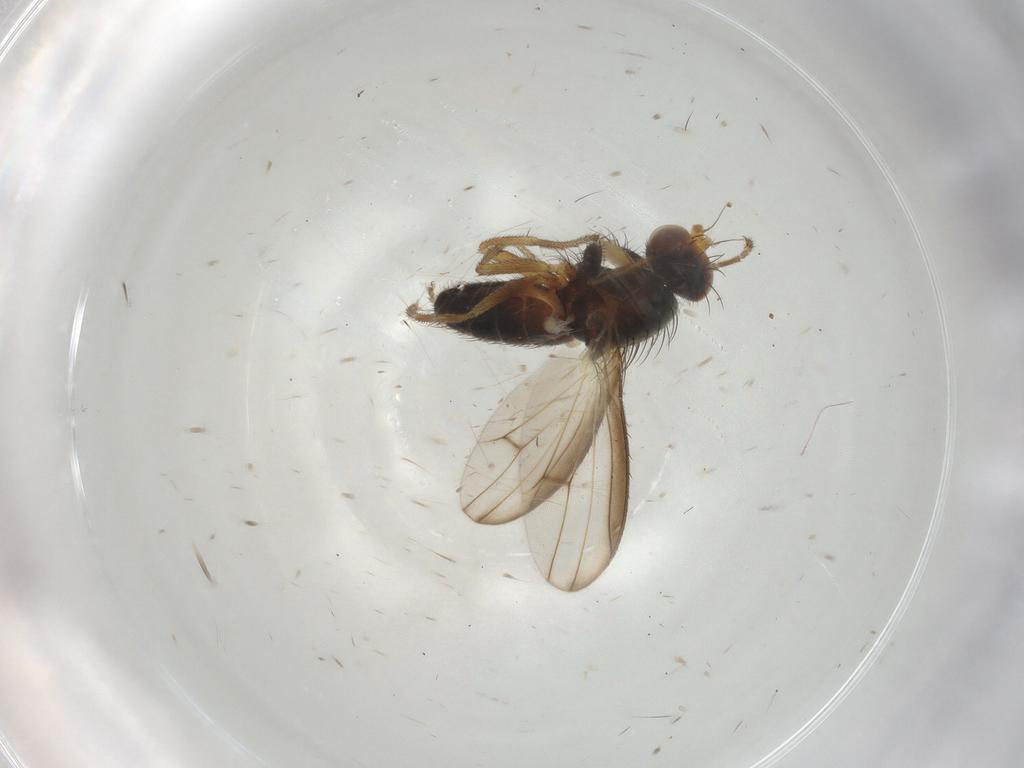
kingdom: Animalia
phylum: Arthropoda
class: Insecta
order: Diptera
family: Heleomyzidae
